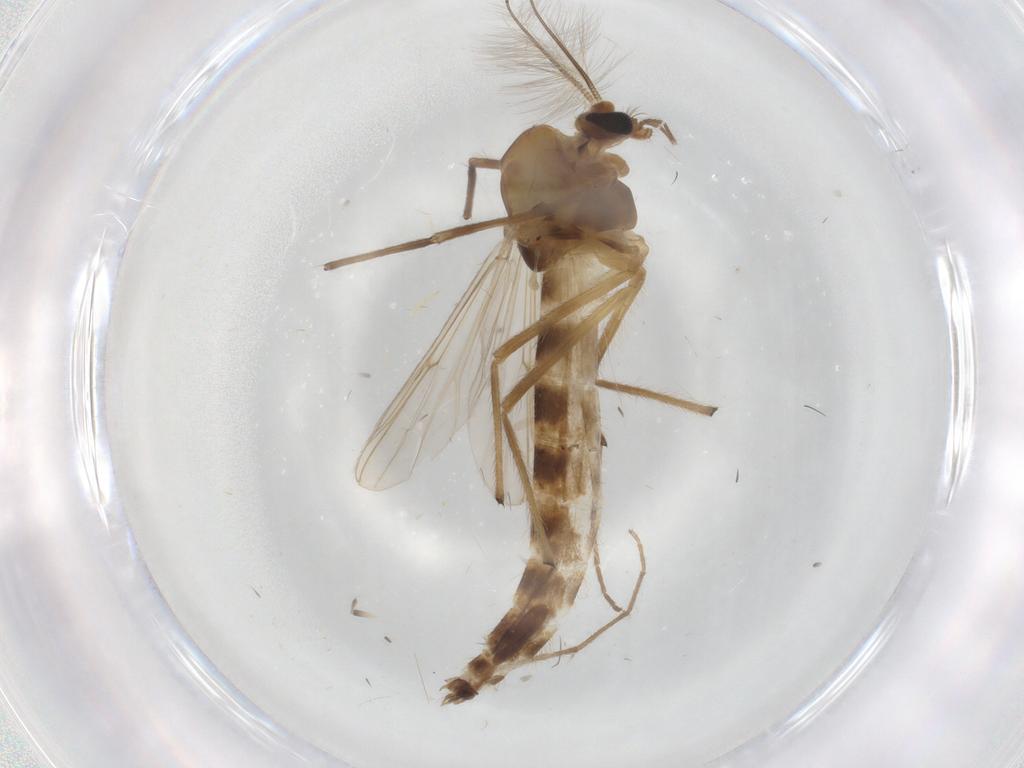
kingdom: Animalia
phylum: Arthropoda
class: Insecta
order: Diptera
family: Chironomidae
